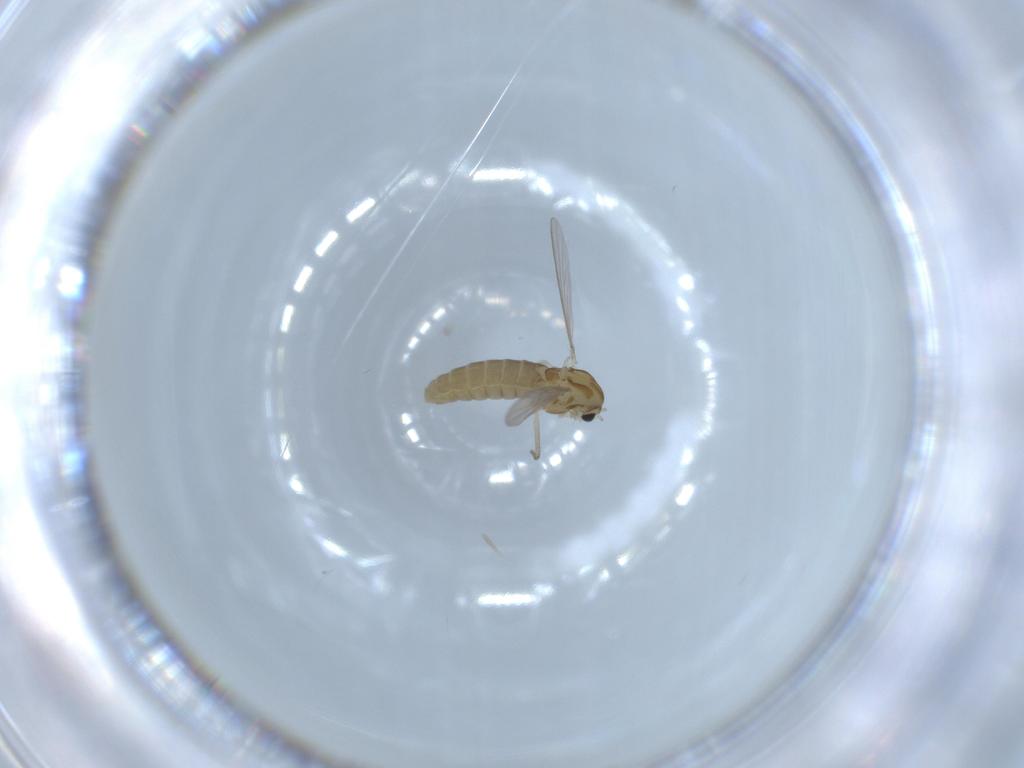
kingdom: Animalia
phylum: Arthropoda
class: Insecta
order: Diptera
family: Chironomidae
